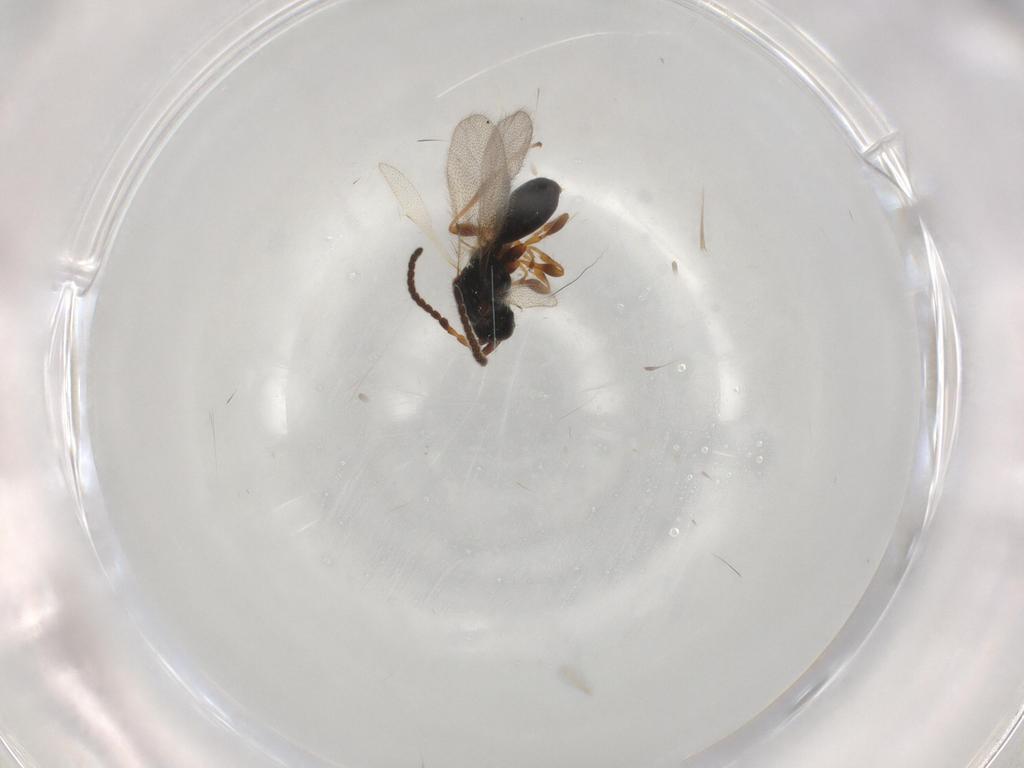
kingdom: Animalia
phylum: Arthropoda
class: Insecta
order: Hymenoptera
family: Diapriidae
